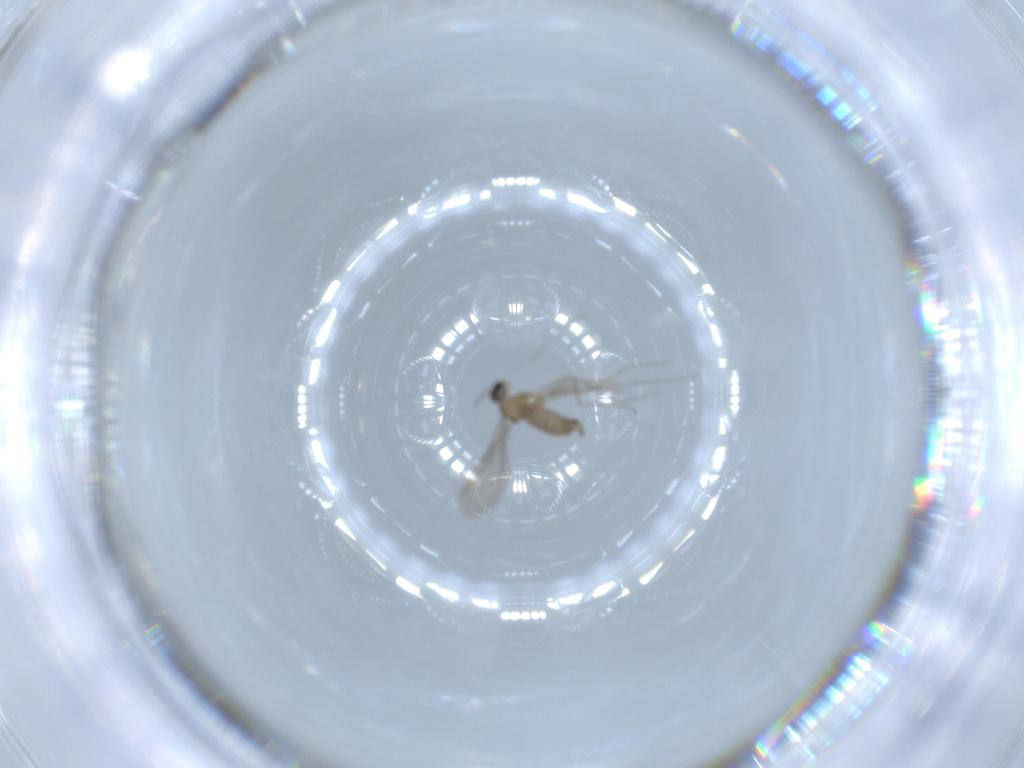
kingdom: Animalia
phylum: Arthropoda
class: Insecta
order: Diptera
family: Cecidomyiidae
